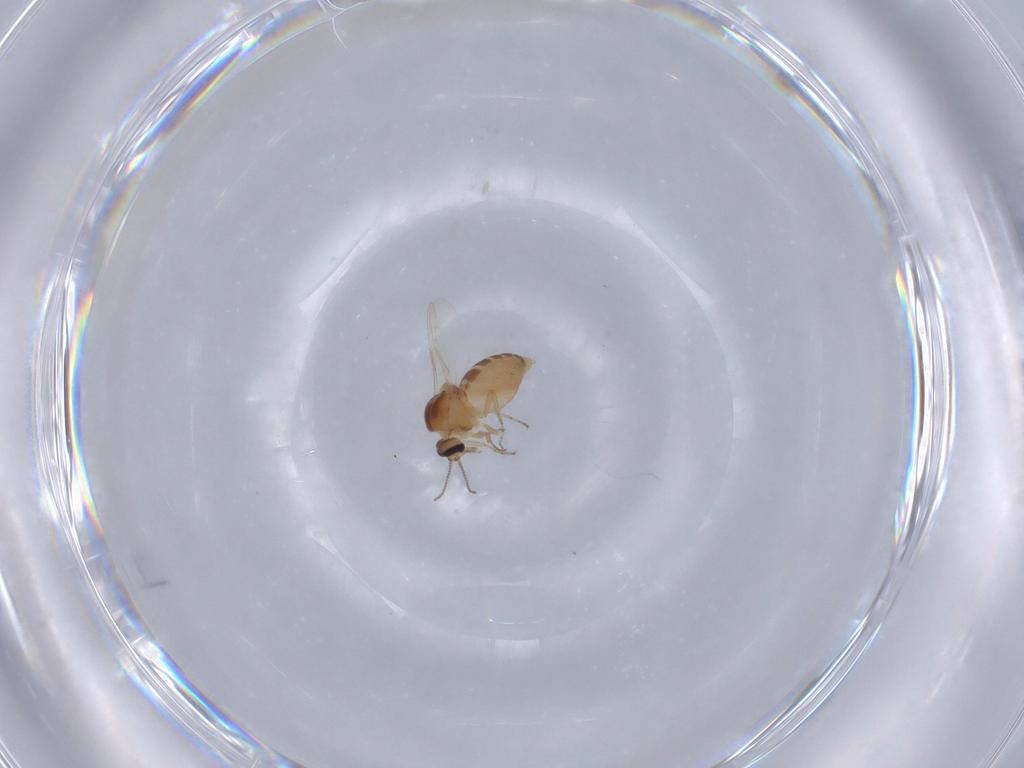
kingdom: Animalia
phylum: Arthropoda
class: Insecta
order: Diptera
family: Ceratopogonidae
